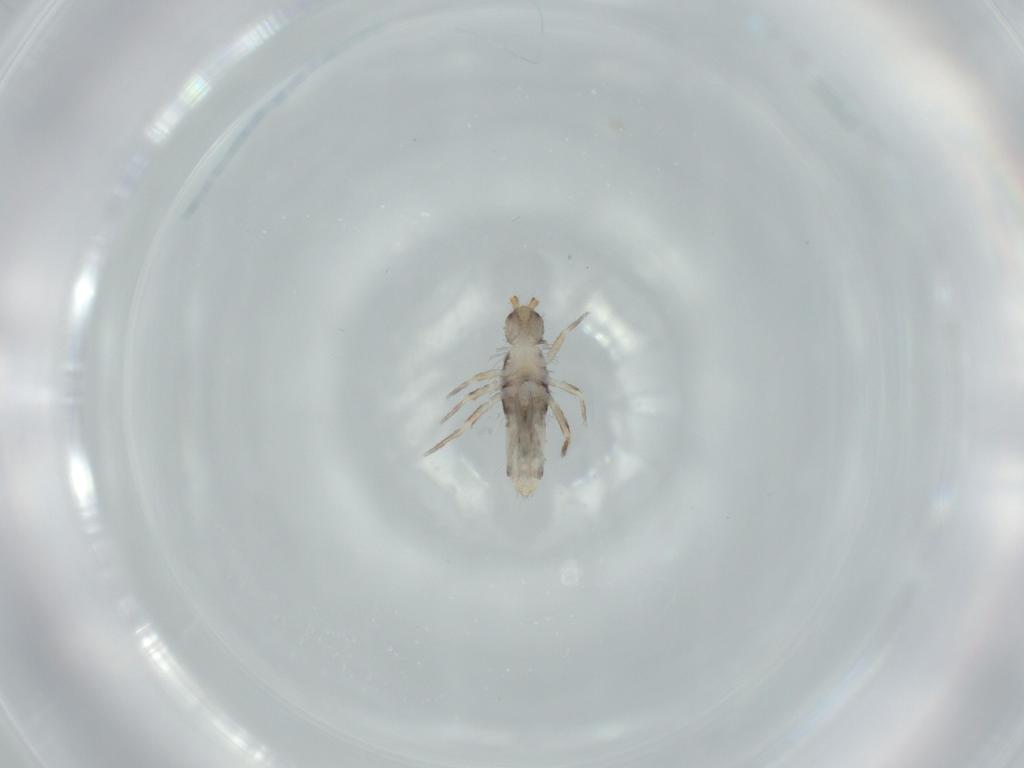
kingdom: Animalia
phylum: Arthropoda
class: Collembola
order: Entomobryomorpha
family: Entomobryidae
